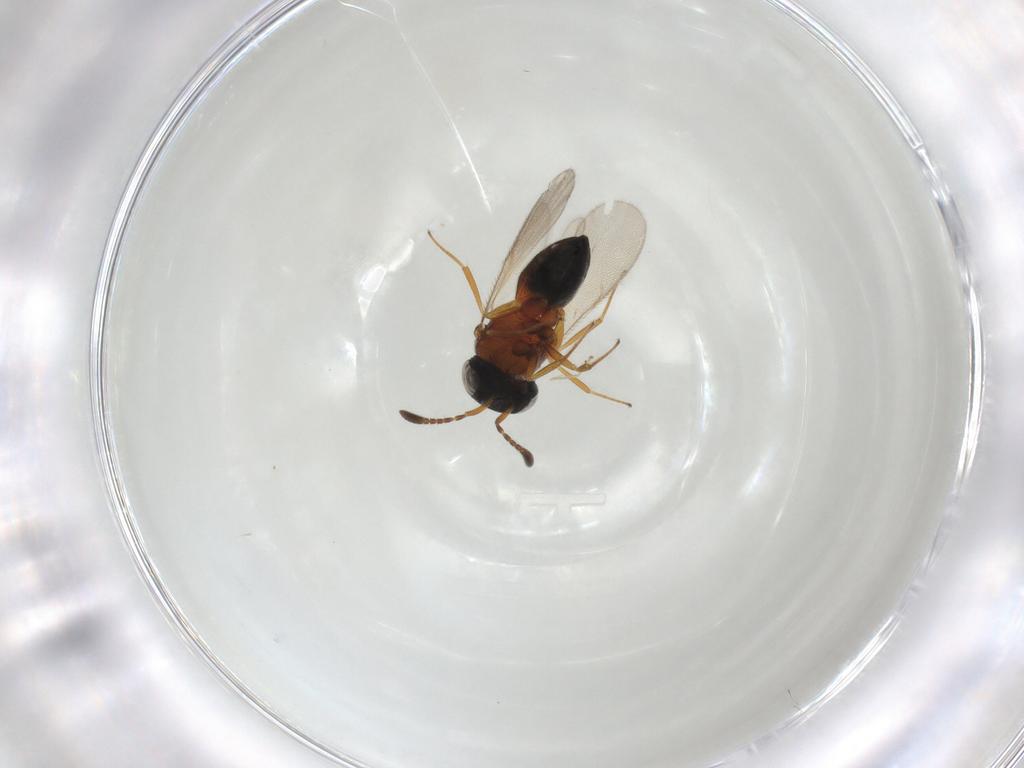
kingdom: Animalia
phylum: Arthropoda
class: Insecta
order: Hymenoptera
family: Scelionidae
